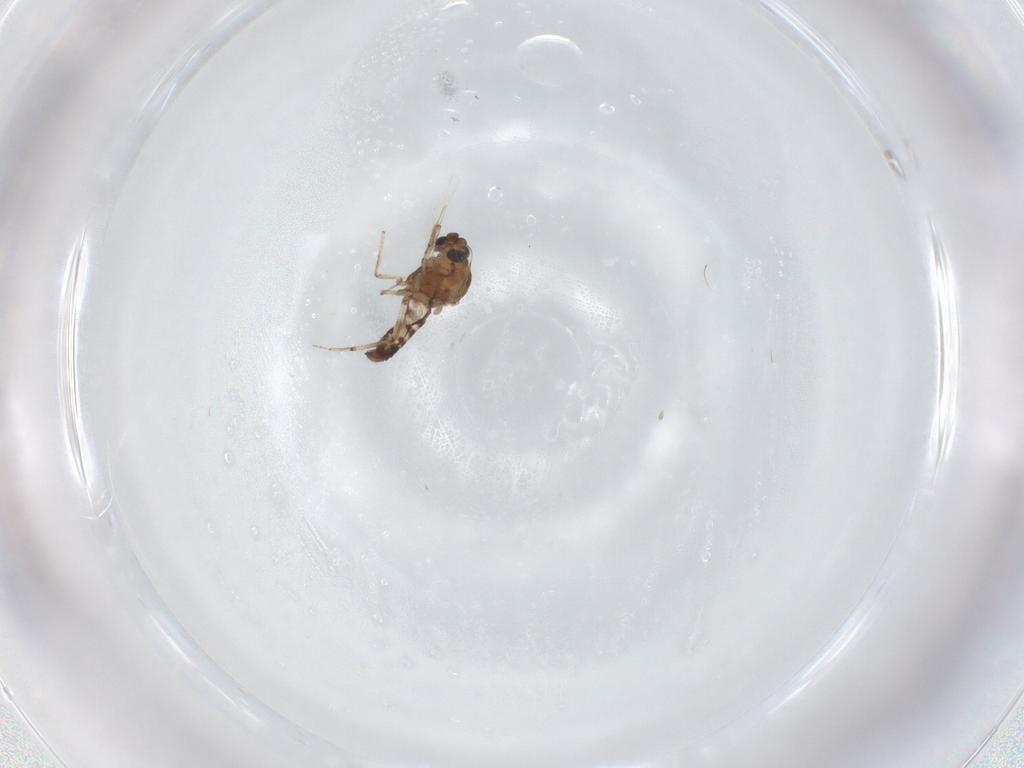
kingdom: Animalia
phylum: Arthropoda
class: Insecta
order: Diptera
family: Ceratopogonidae
